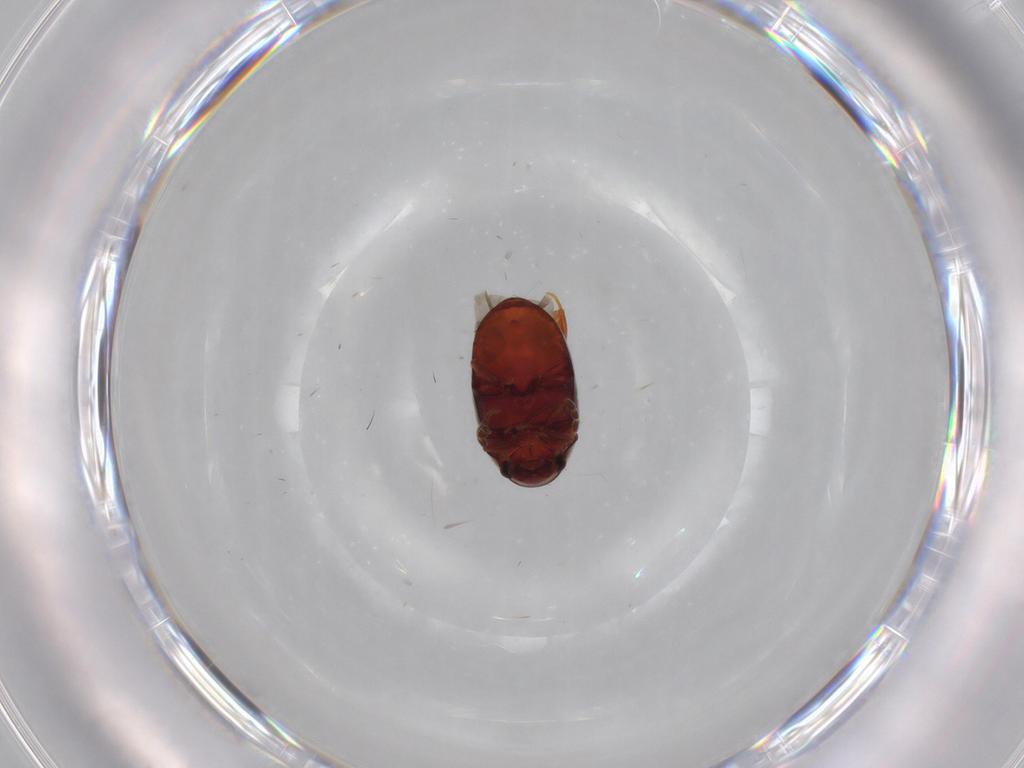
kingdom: Animalia
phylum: Arthropoda
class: Insecta
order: Coleoptera
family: Ptinidae
